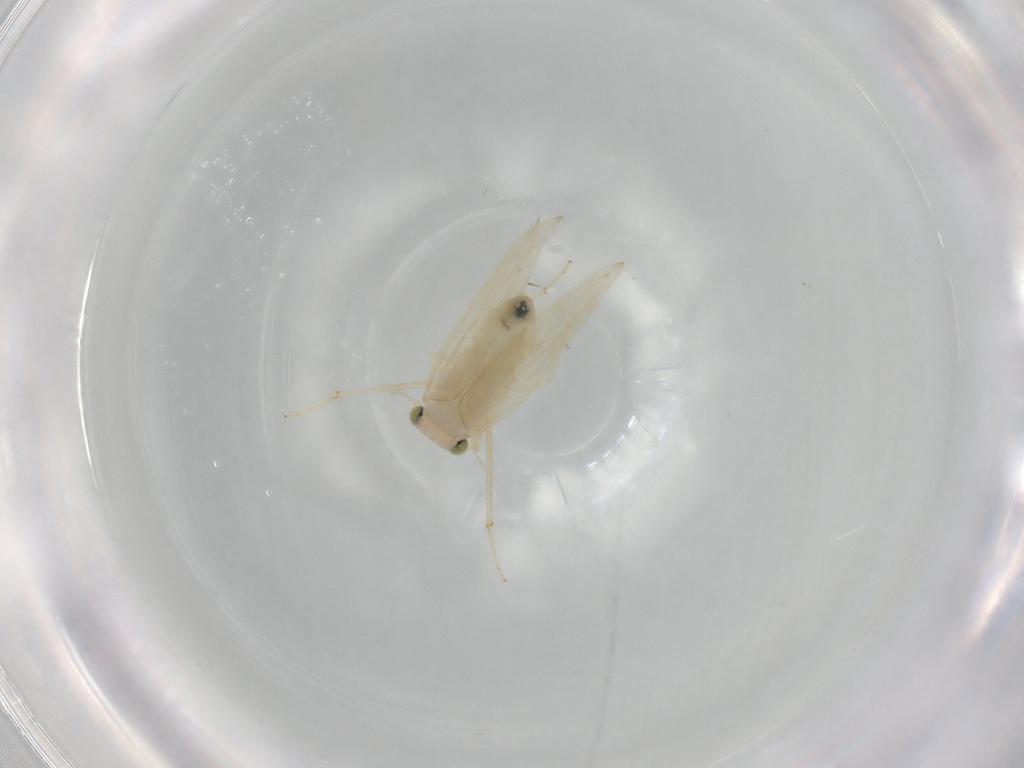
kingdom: Animalia
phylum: Arthropoda
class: Insecta
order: Psocodea
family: Lepidopsocidae
